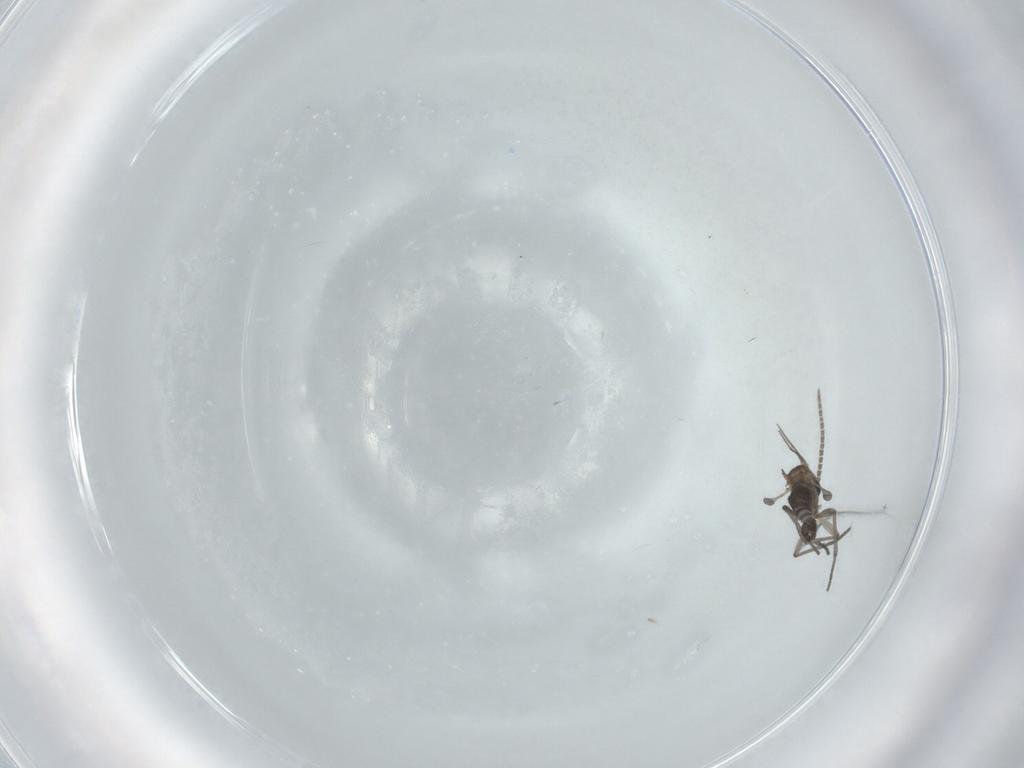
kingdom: Animalia
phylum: Arthropoda
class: Insecta
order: Diptera
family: Sciaridae
